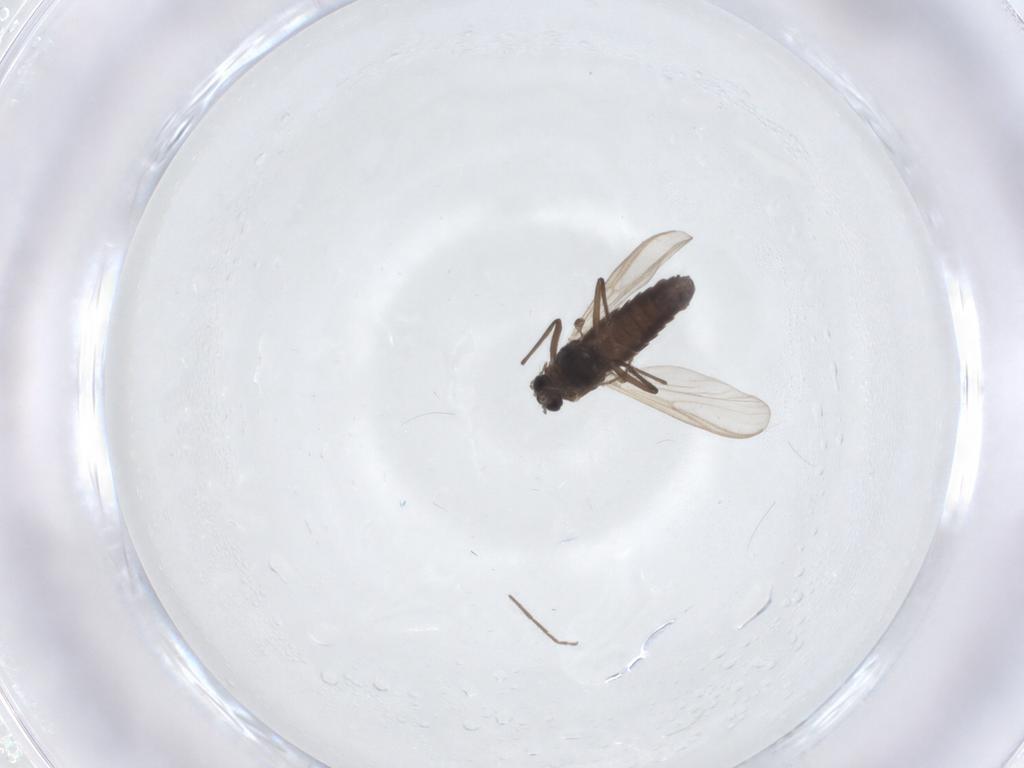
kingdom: Animalia
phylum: Arthropoda
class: Insecta
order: Diptera
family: Chironomidae
